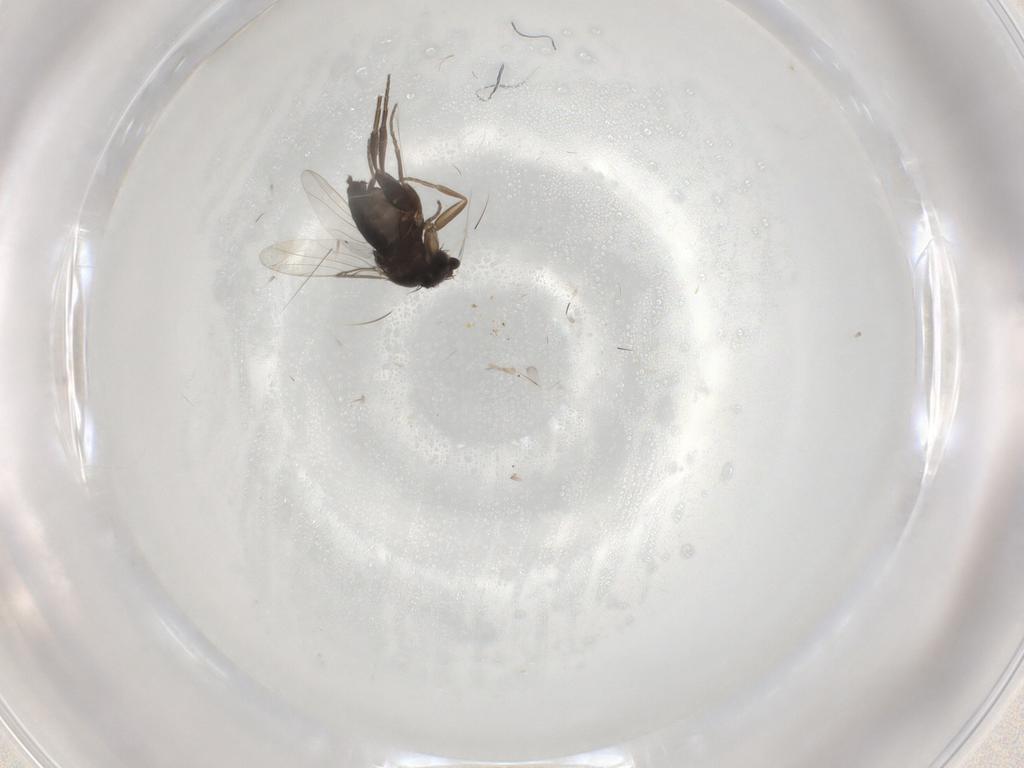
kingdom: Animalia
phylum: Arthropoda
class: Insecta
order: Diptera
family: Phoridae
